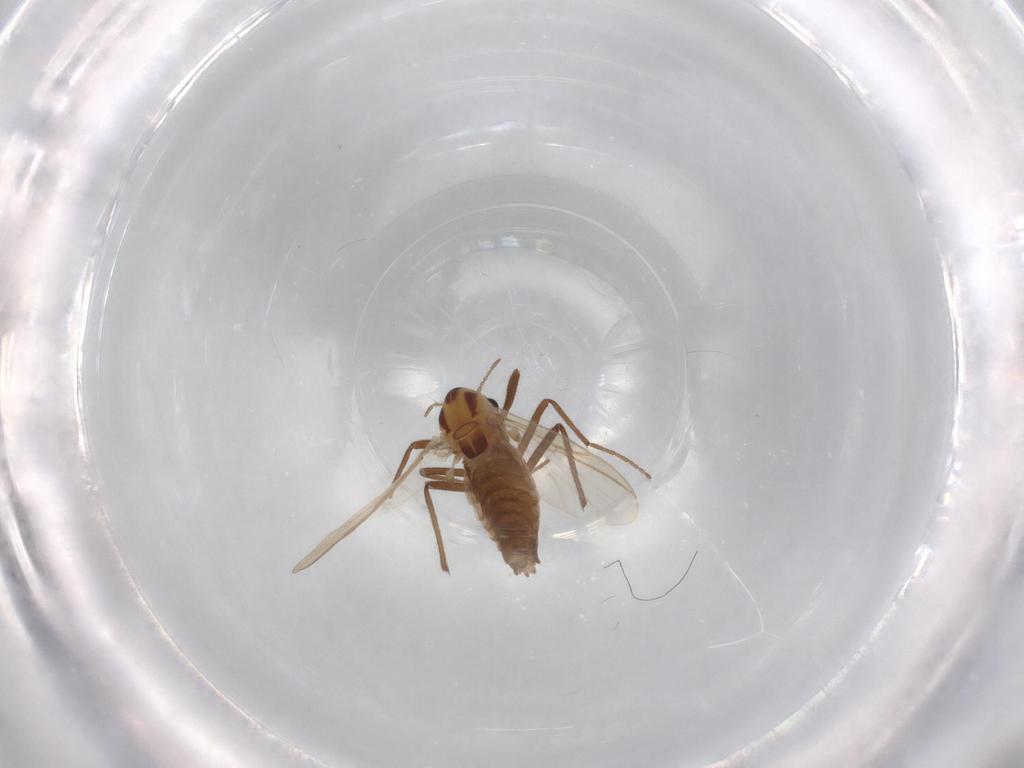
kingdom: Animalia
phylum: Arthropoda
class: Insecta
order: Diptera
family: Chironomidae
